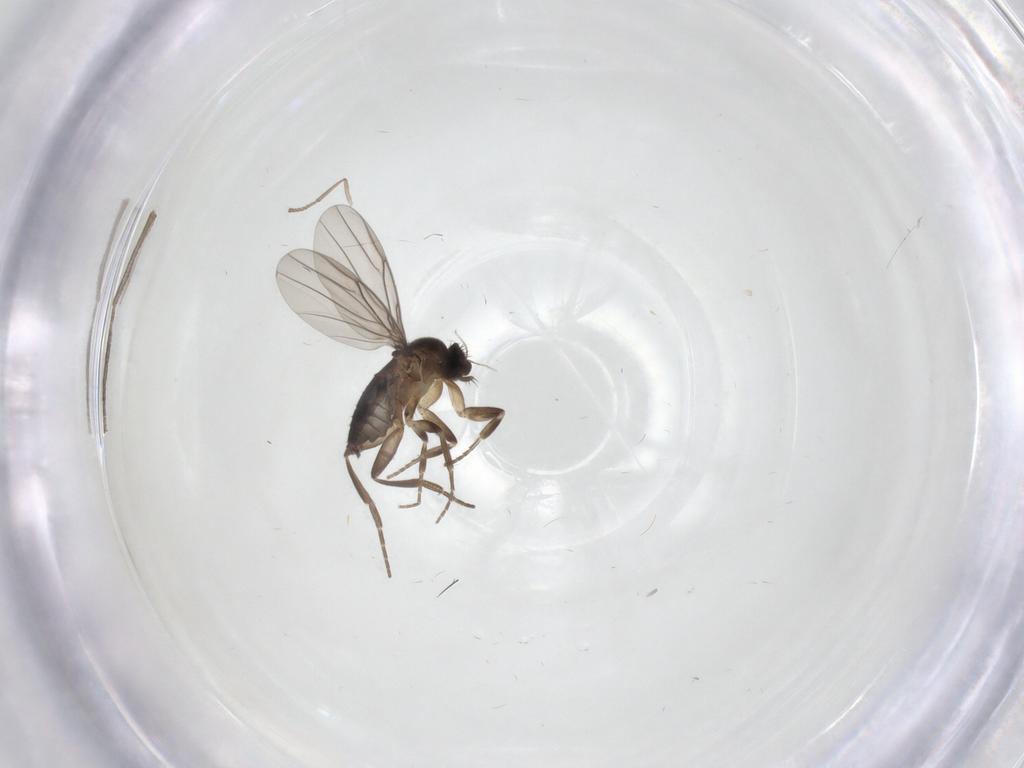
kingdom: Animalia
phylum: Arthropoda
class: Insecta
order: Diptera
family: Mycetophilidae
